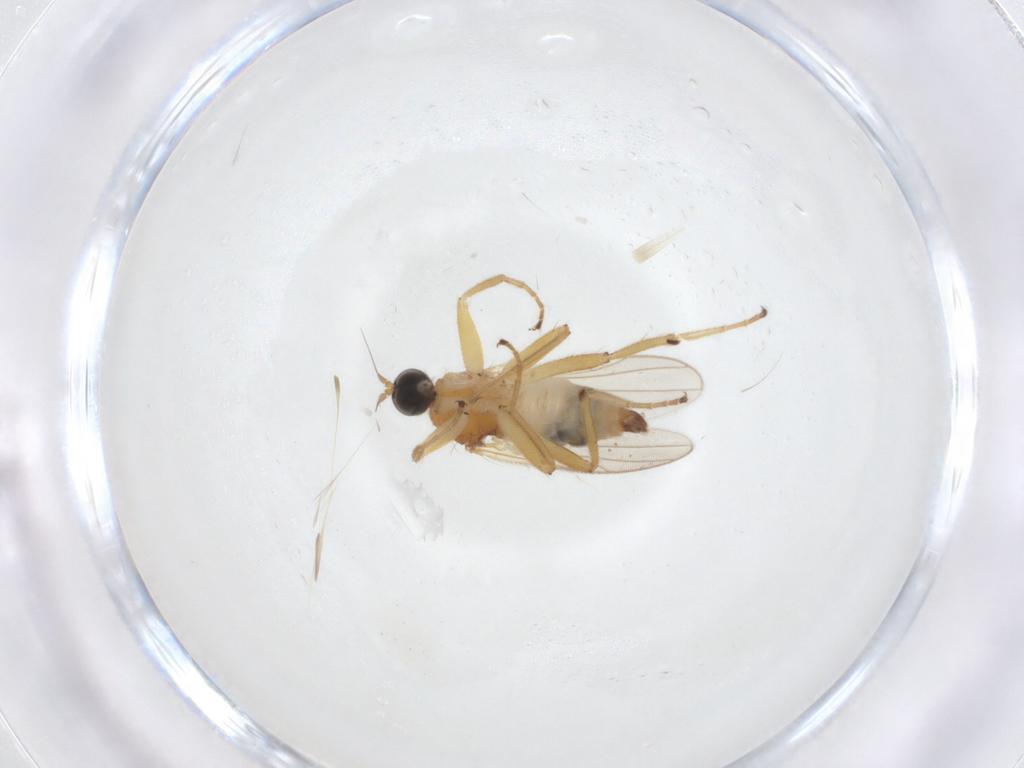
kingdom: Animalia
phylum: Arthropoda
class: Insecta
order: Diptera
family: Hybotidae
